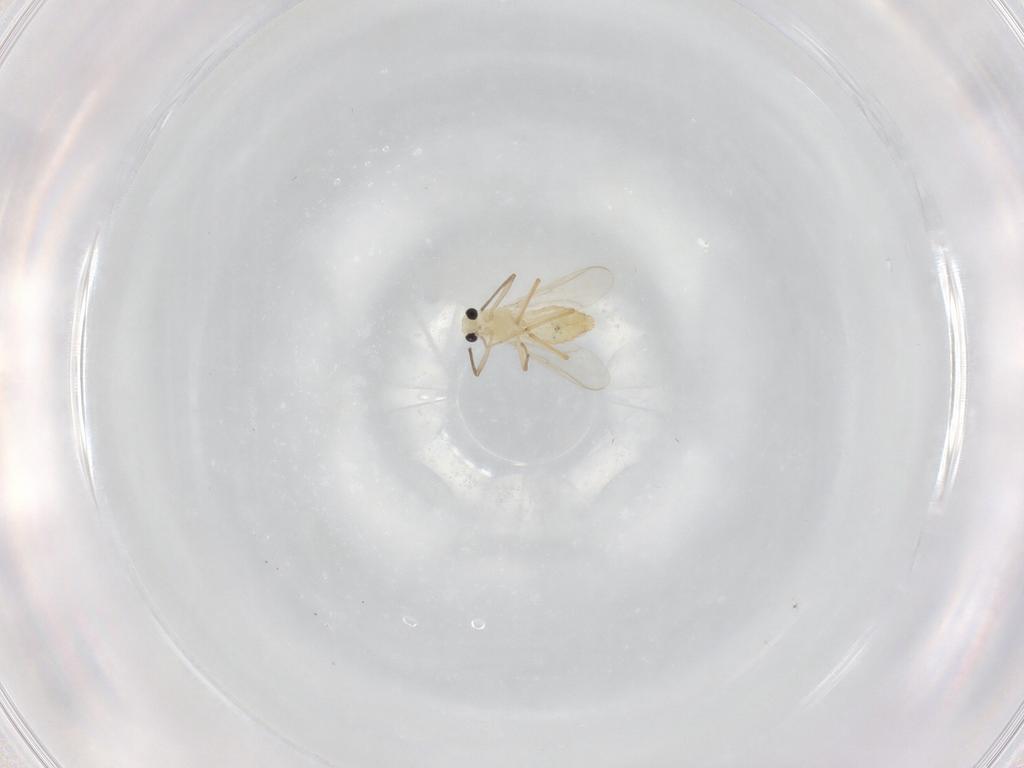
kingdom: Animalia
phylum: Arthropoda
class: Insecta
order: Diptera
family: Chironomidae
